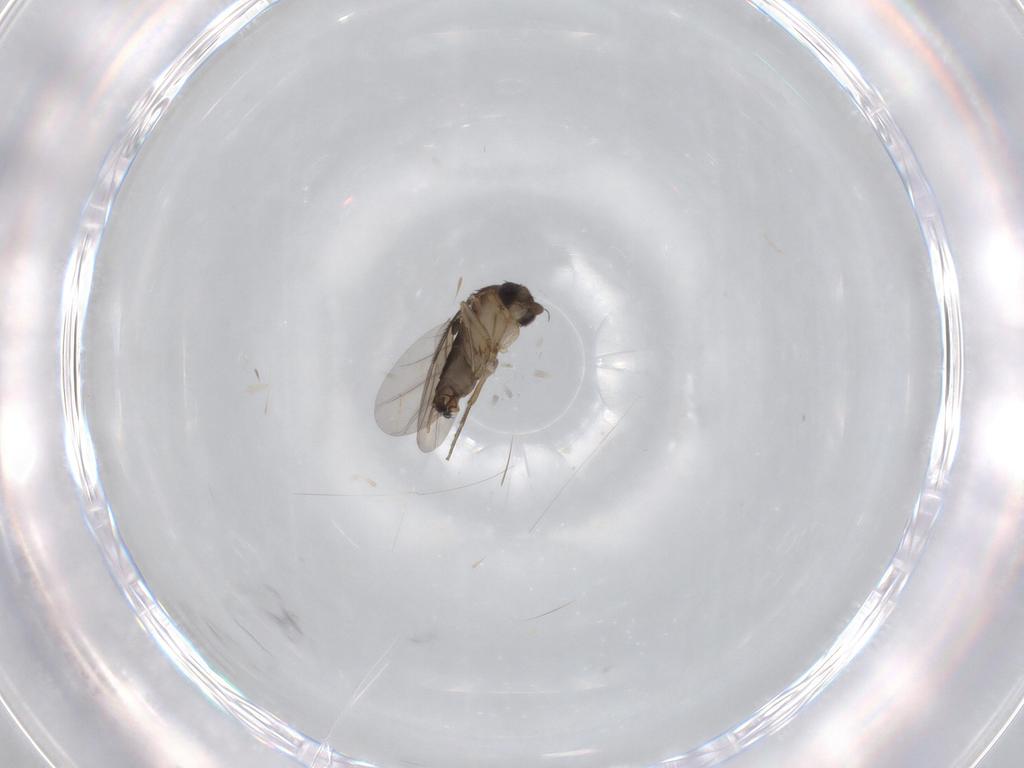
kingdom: Animalia
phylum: Arthropoda
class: Insecta
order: Diptera
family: Phoridae
